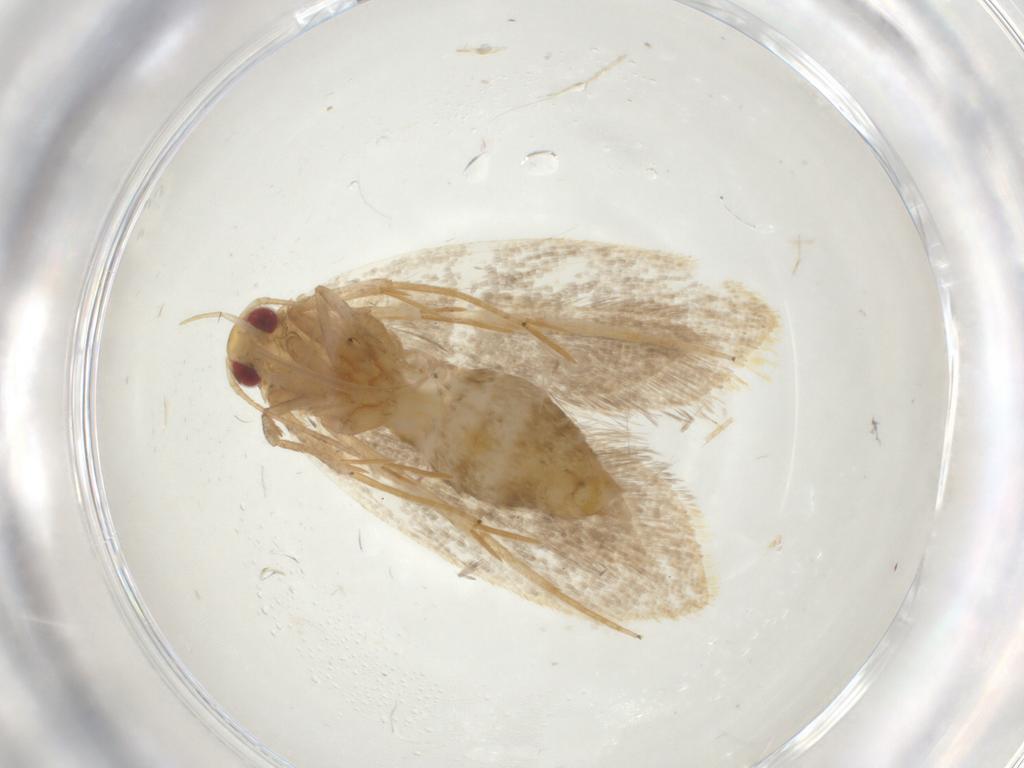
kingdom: Animalia
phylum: Arthropoda
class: Insecta
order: Lepidoptera
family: Oecophoridae
